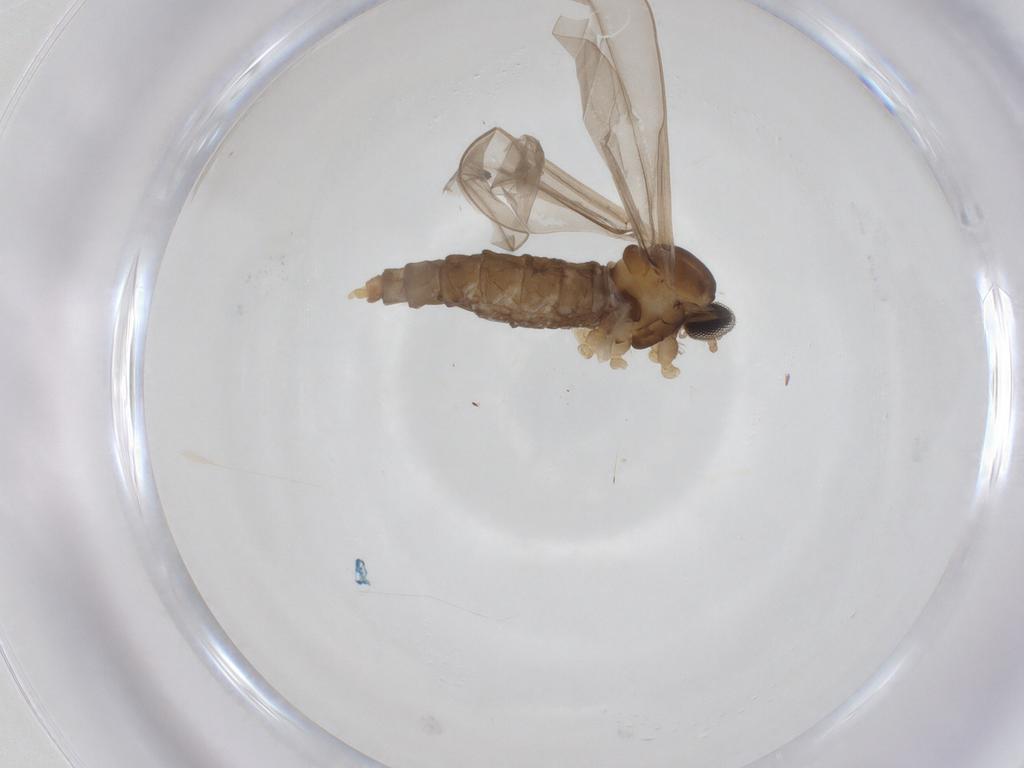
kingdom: Animalia
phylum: Arthropoda
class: Insecta
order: Diptera
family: Cecidomyiidae
